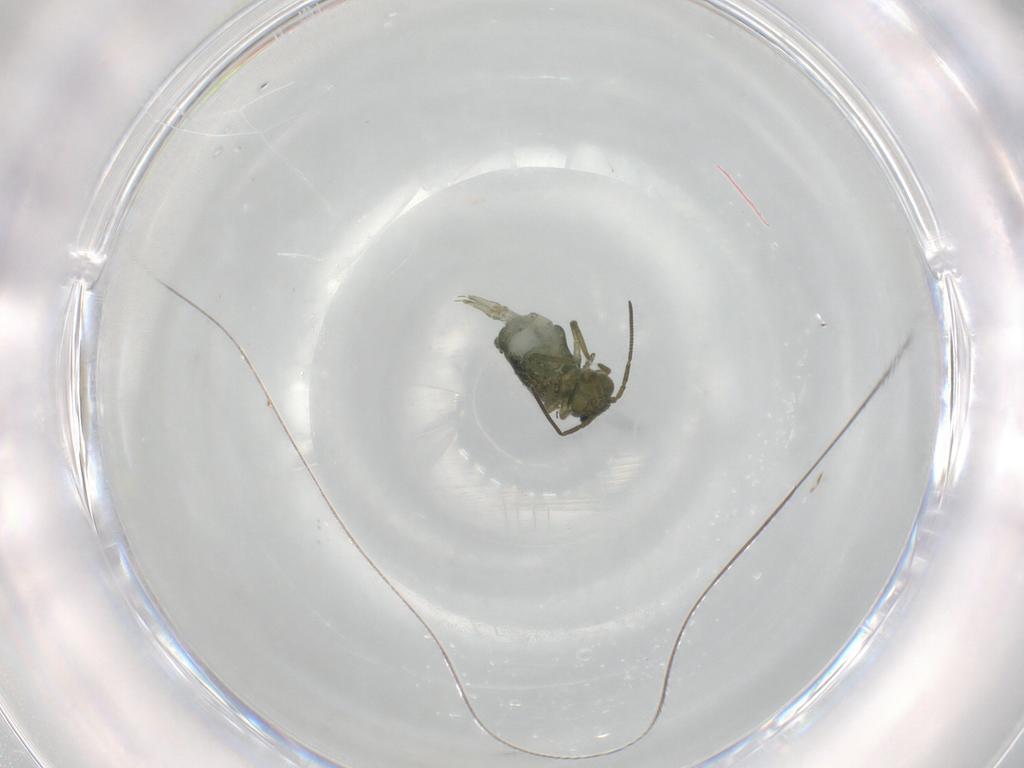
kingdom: Animalia
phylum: Arthropoda
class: Collembola
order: Symphypleona
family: Sminthuridae
